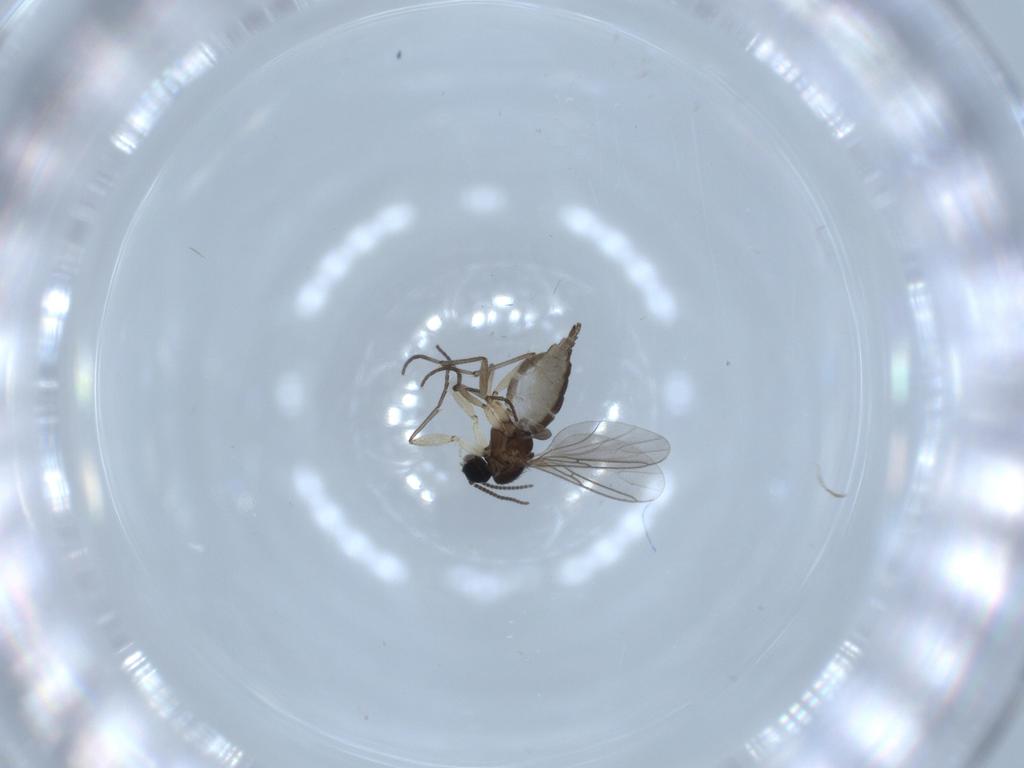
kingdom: Animalia
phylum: Arthropoda
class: Insecta
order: Diptera
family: Sciaridae
